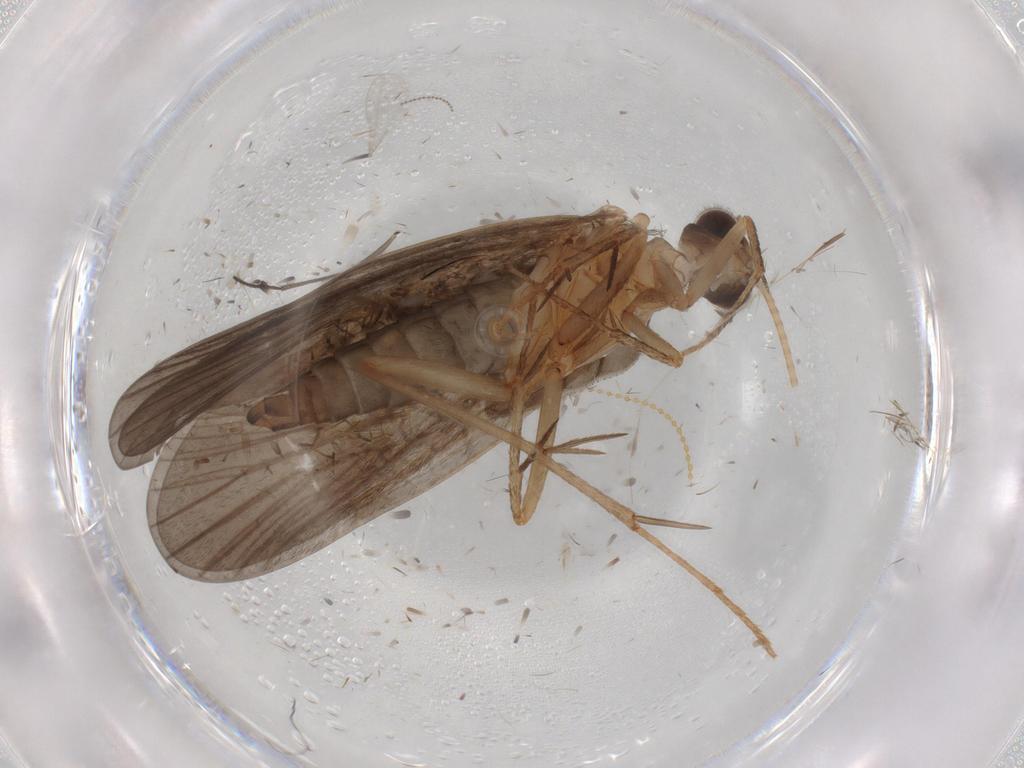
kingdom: Animalia
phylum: Arthropoda
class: Insecta
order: Trichoptera
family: Philopotamidae
